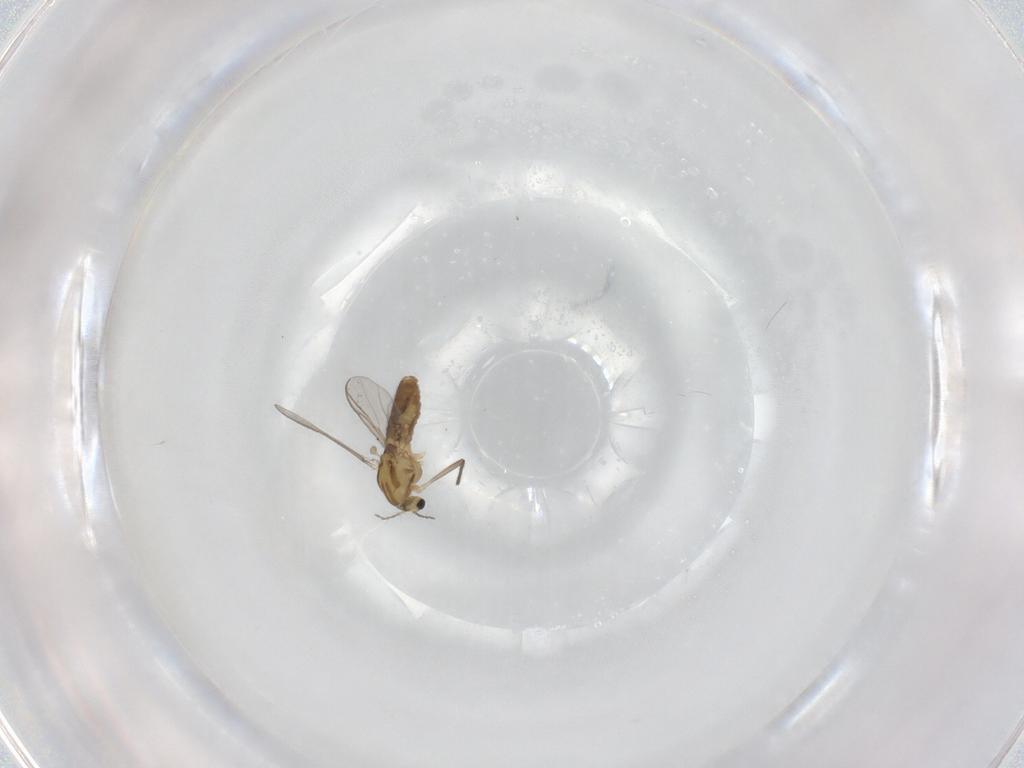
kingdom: Animalia
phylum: Arthropoda
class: Insecta
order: Diptera
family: Chironomidae
